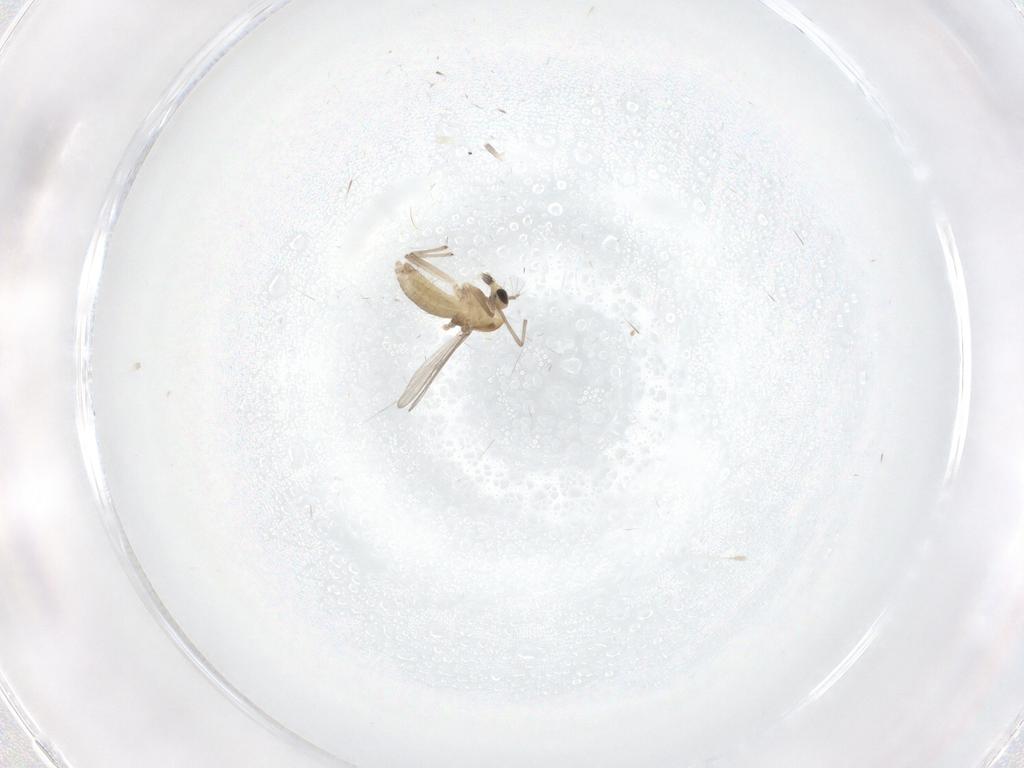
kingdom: Animalia
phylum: Arthropoda
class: Insecta
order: Diptera
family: Chironomidae
